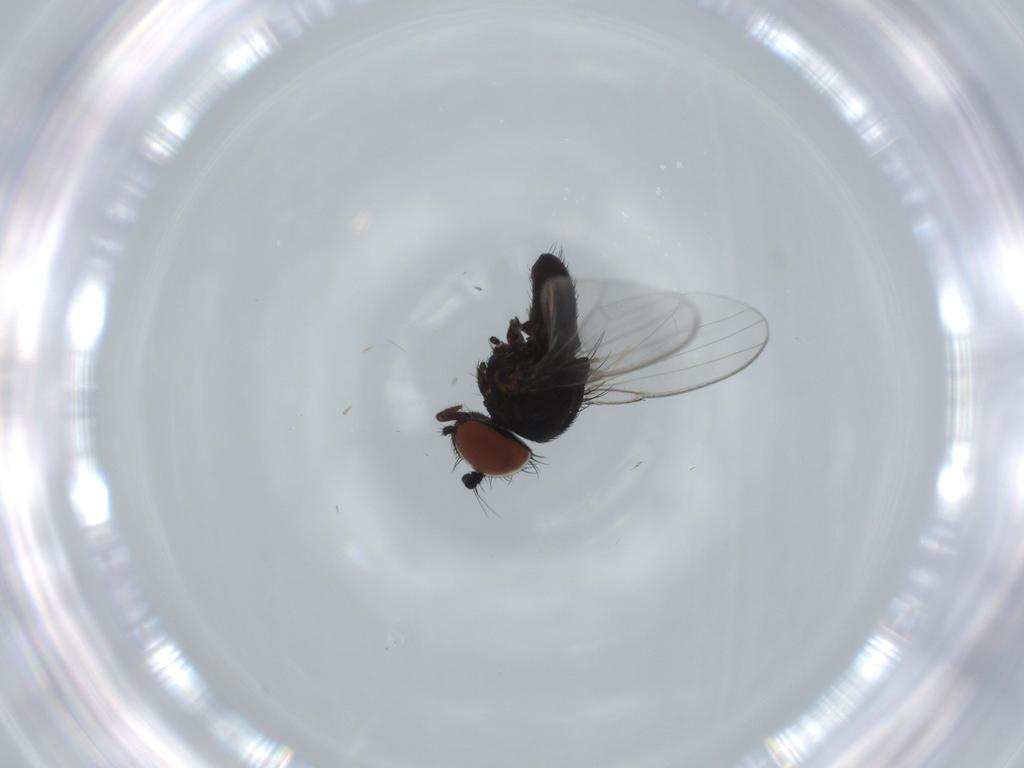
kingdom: Animalia
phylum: Arthropoda
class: Insecta
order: Diptera
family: Milichiidae
